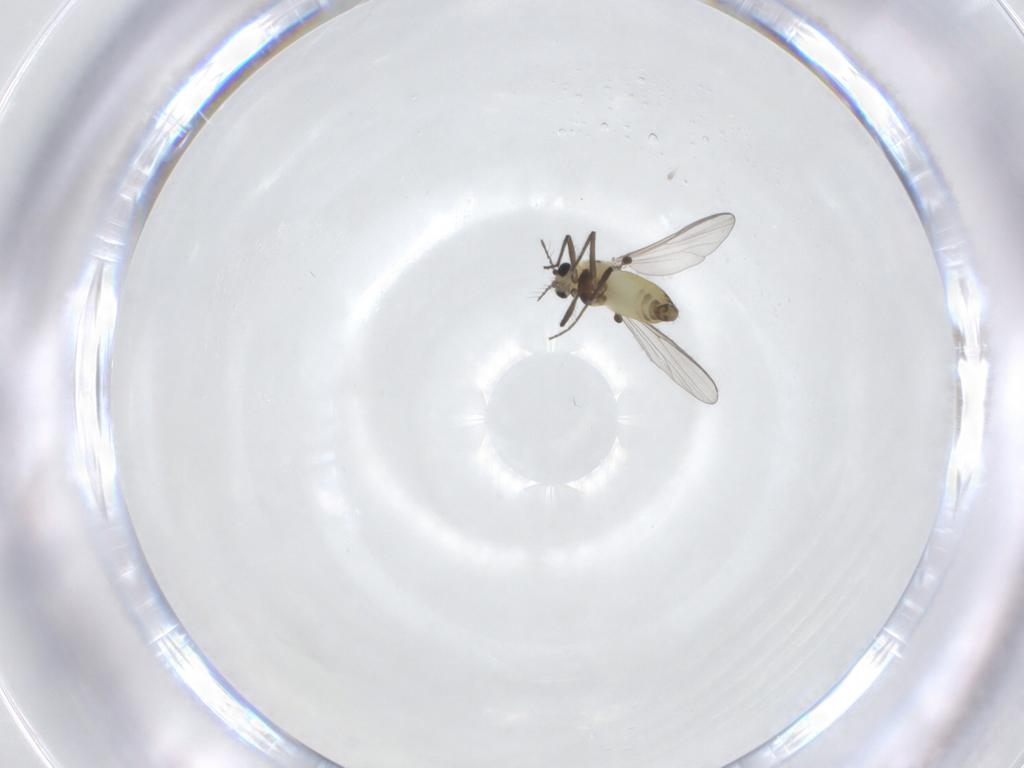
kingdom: Animalia
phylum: Arthropoda
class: Insecta
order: Diptera
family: Chironomidae
